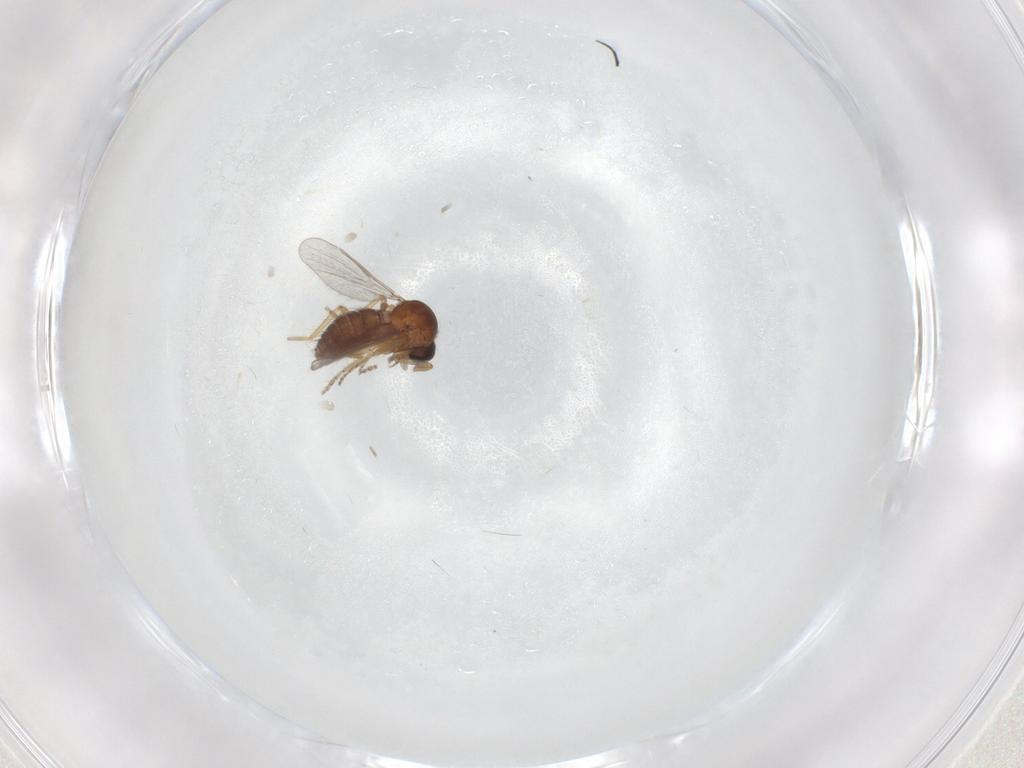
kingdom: Animalia
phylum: Arthropoda
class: Insecta
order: Diptera
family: Ceratopogonidae
